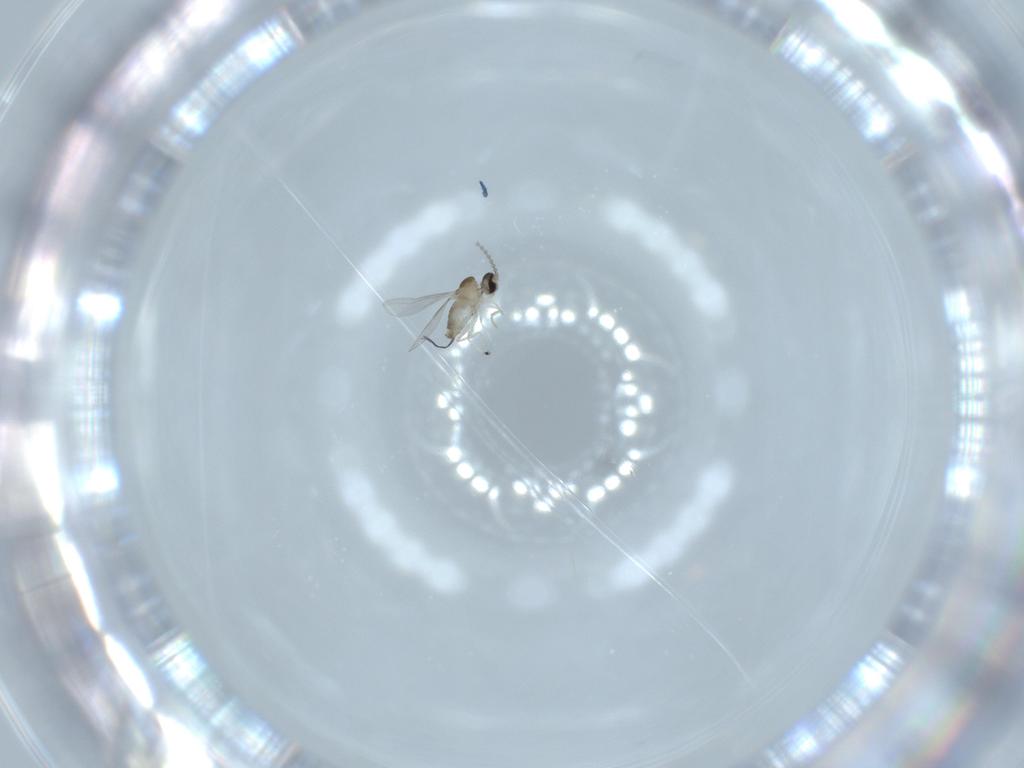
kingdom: Animalia
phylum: Arthropoda
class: Insecta
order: Diptera
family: Cecidomyiidae
